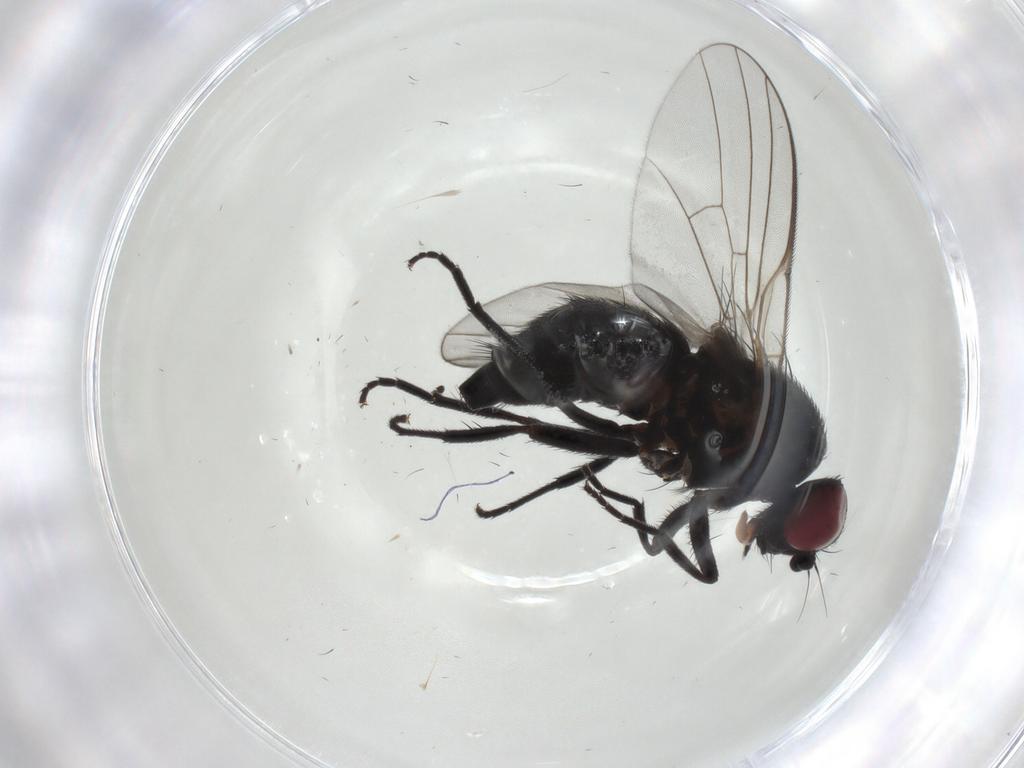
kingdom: Animalia
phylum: Arthropoda
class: Insecta
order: Diptera
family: Agromyzidae
